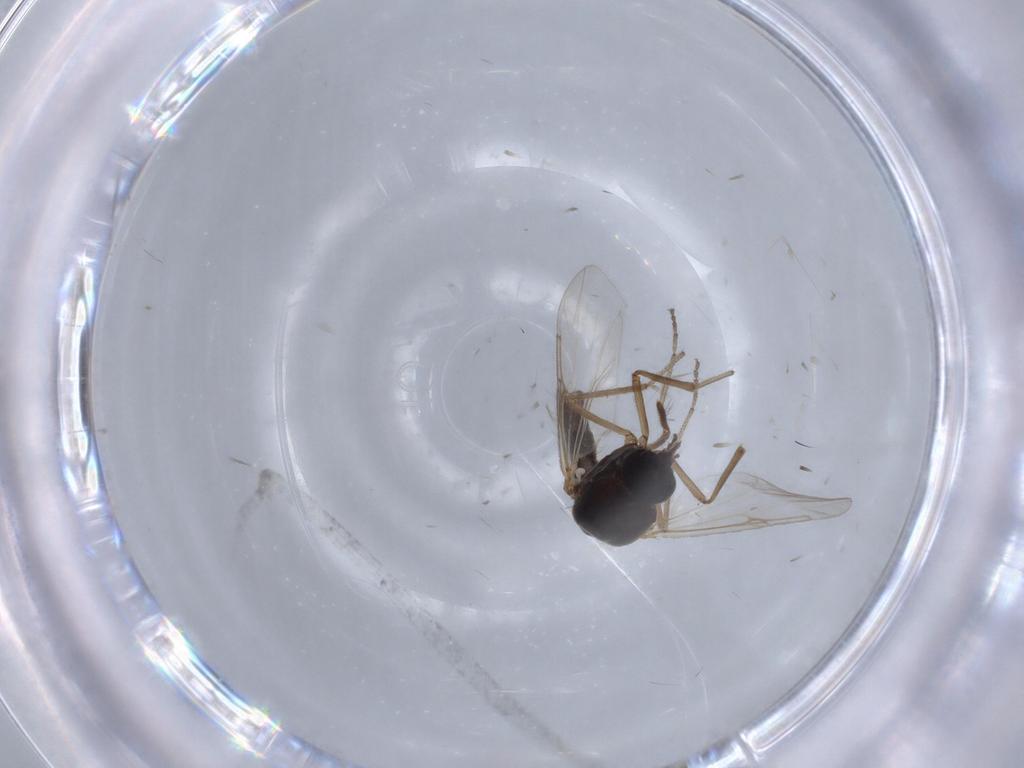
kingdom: Animalia
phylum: Arthropoda
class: Insecta
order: Diptera
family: Ceratopogonidae
